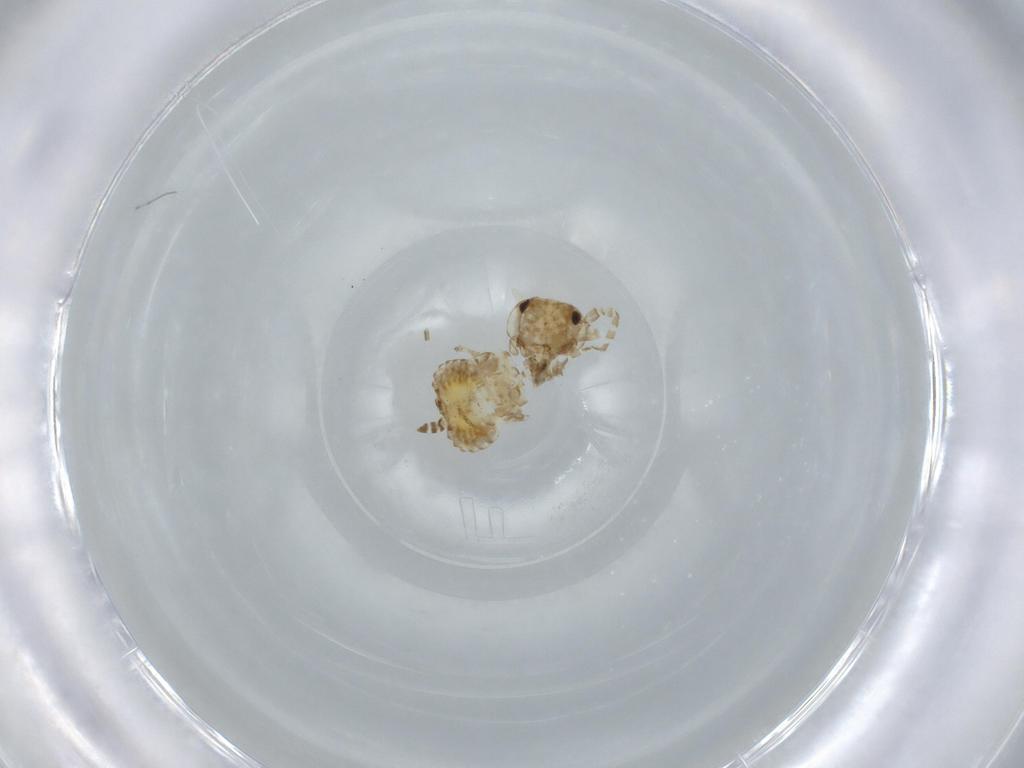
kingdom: Animalia
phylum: Arthropoda
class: Insecta
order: Blattodea
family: Ectobiidae
